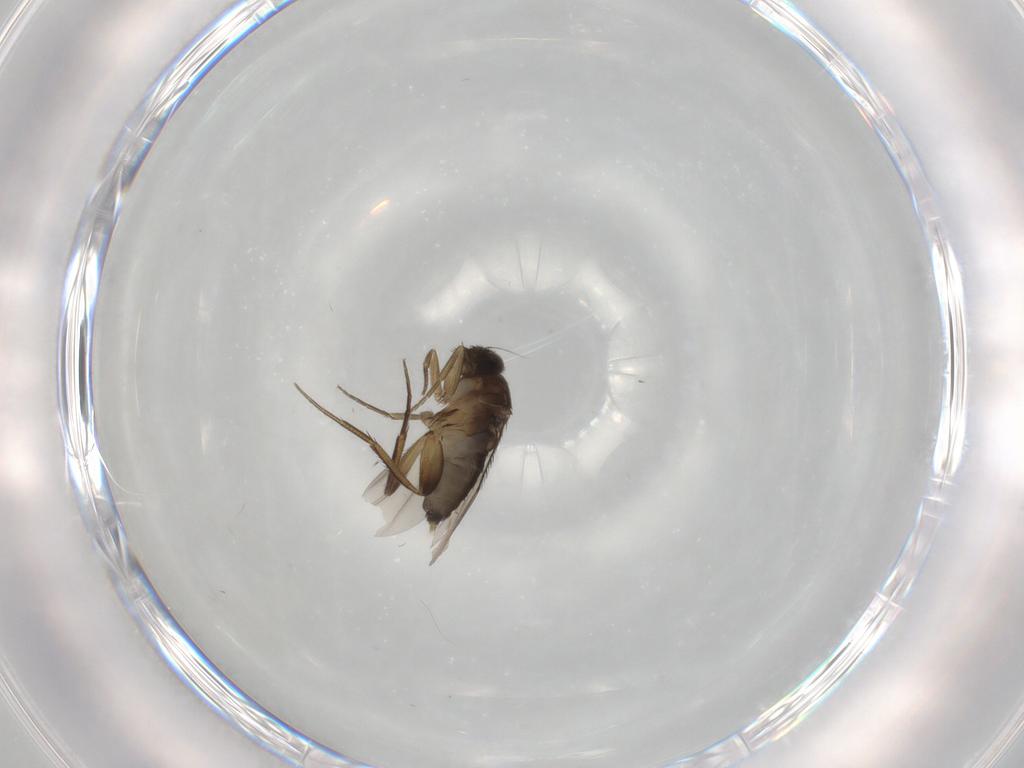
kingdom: Animalia
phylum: Arthropoda
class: Insecta
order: Diptera
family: Phoridae
